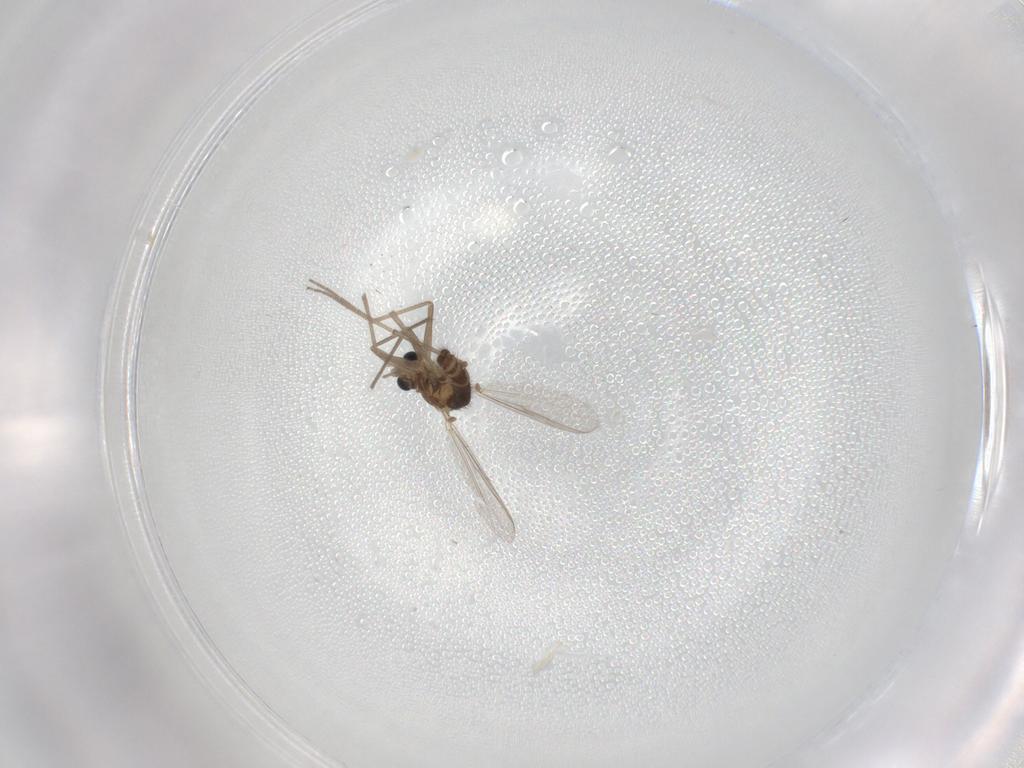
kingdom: Animalia
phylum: Arthropoda
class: Insecta
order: Diptera
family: Chironomidae
